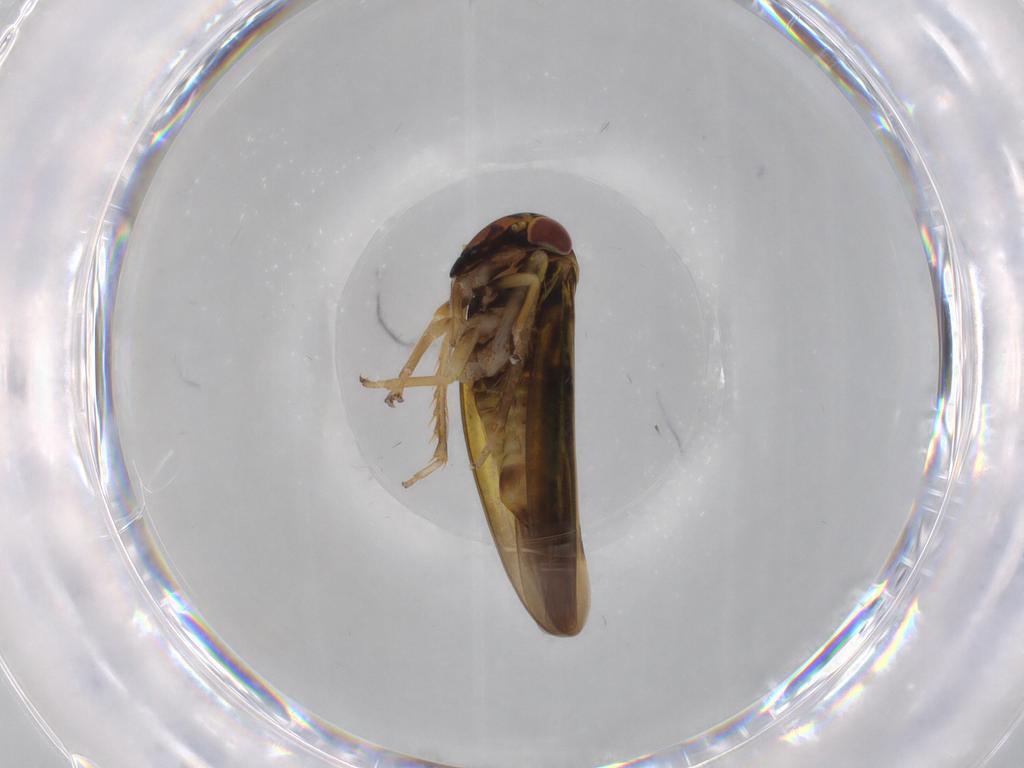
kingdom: Animalia
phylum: Arthropoda
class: Insecta
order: Hemiptera
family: Cicadellidae
